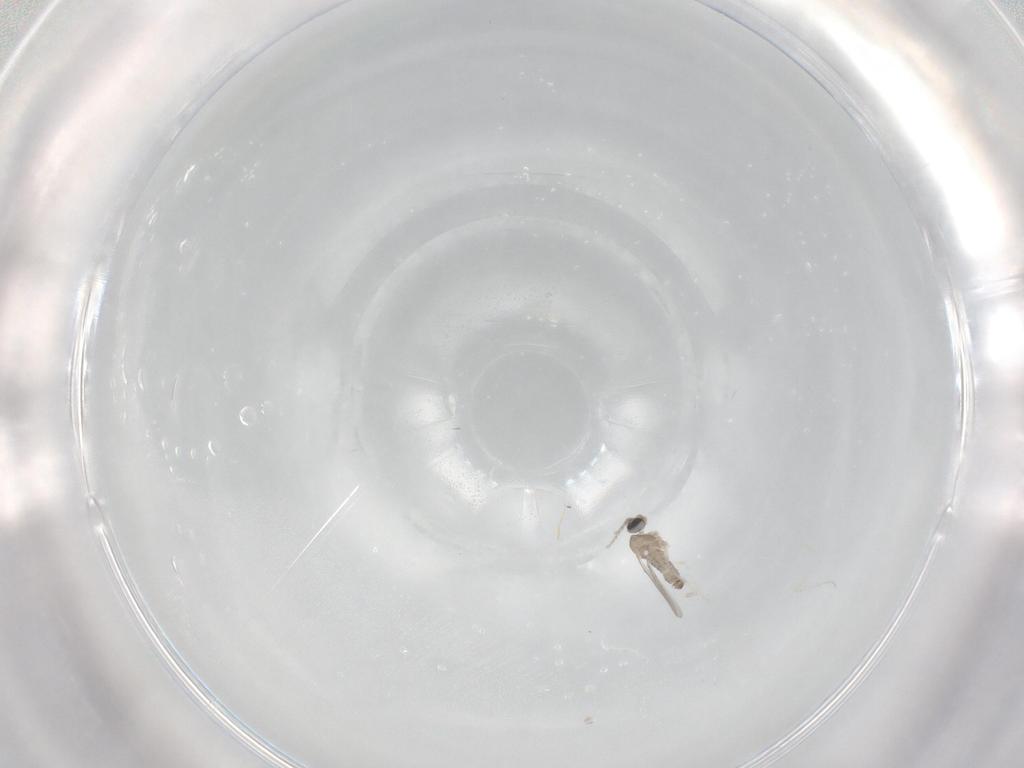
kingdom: Animalia
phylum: Arthropoda
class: Insecta
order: Diptera
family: Cecidomyiidae
